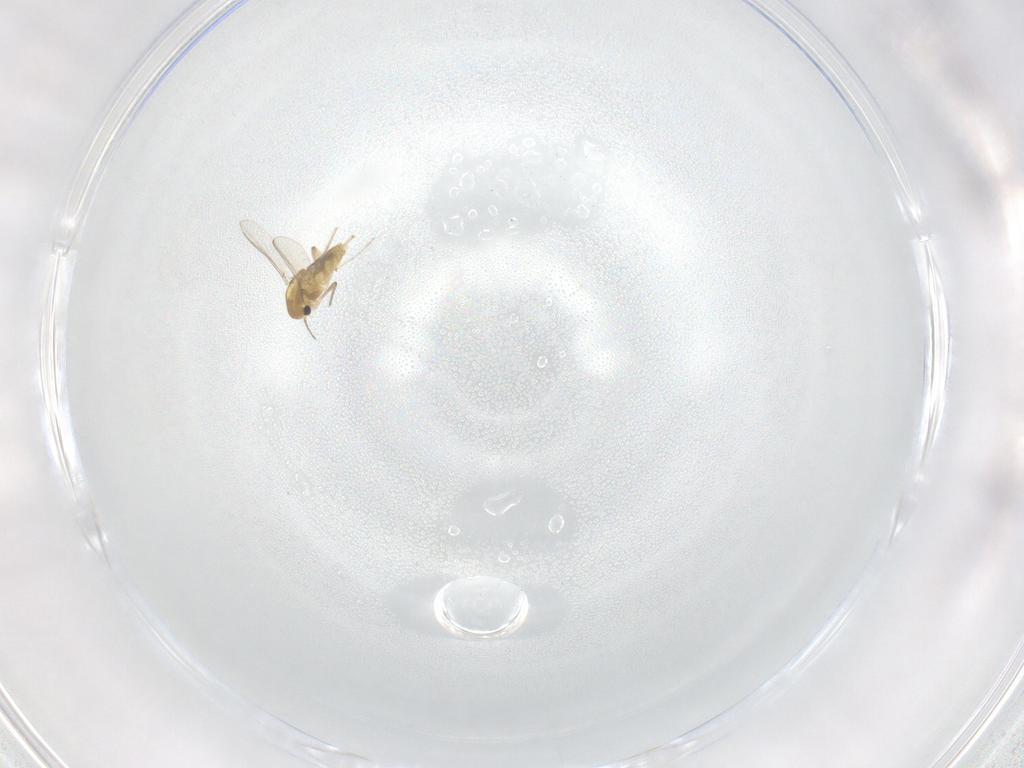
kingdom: Animalia
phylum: Arthropoda
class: Insecta
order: Diptera
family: Chironomidae
